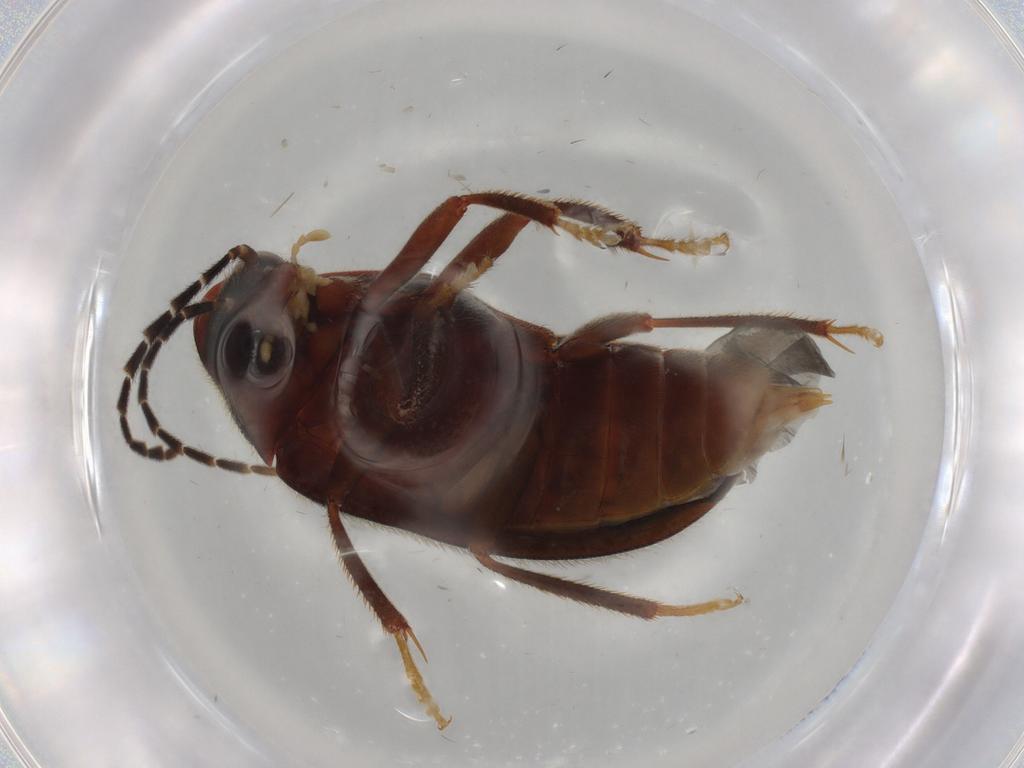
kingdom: Animalia
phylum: Arthropoda
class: Insecta
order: Coleoptera
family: Ptilodactylidae
